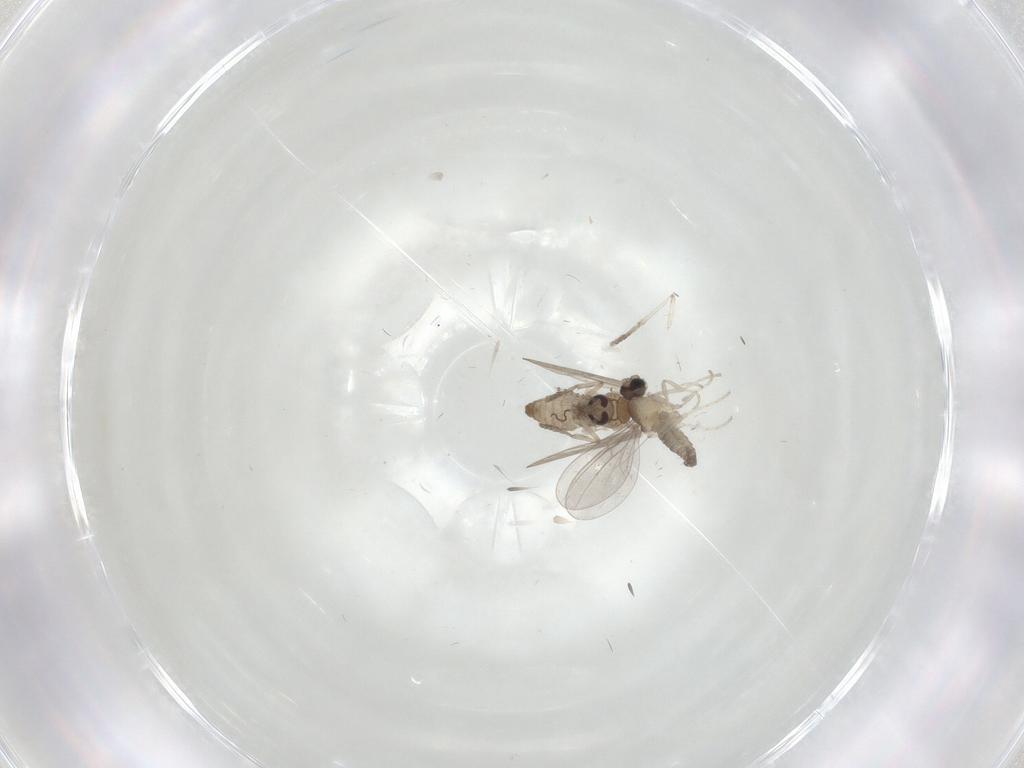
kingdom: Animalia
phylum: Arthropoda
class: Insecta
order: Diptera
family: Psychodidae
